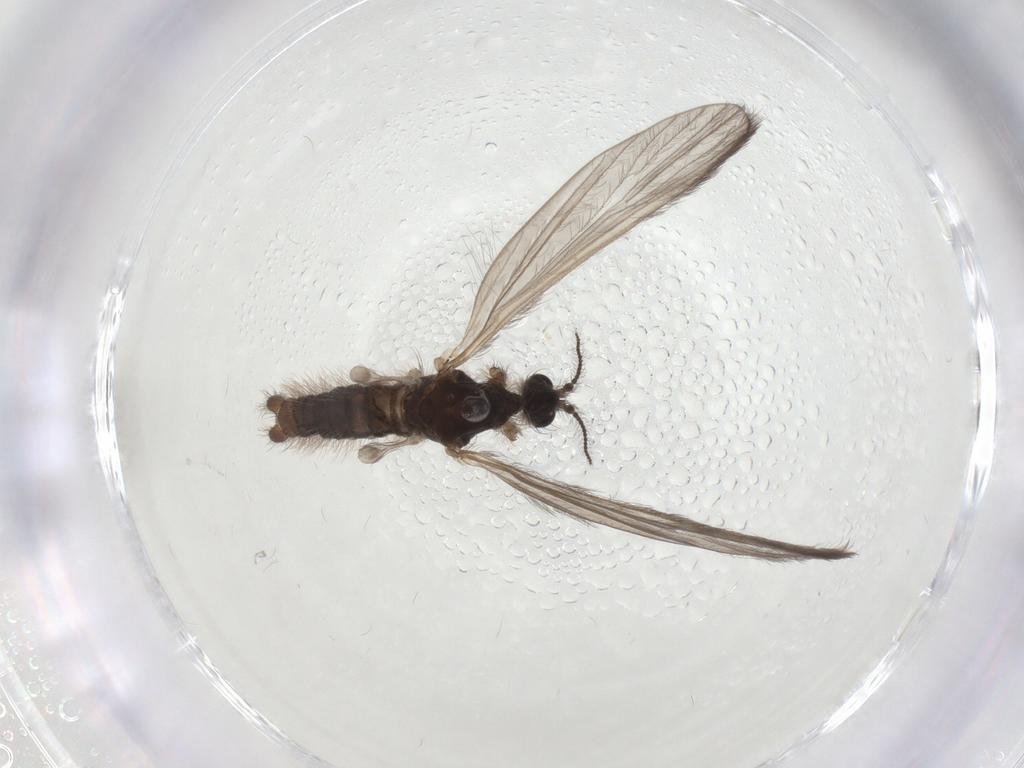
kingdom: Animalia
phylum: Arthropoda
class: Insecta
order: Diptera
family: Limoniidae
